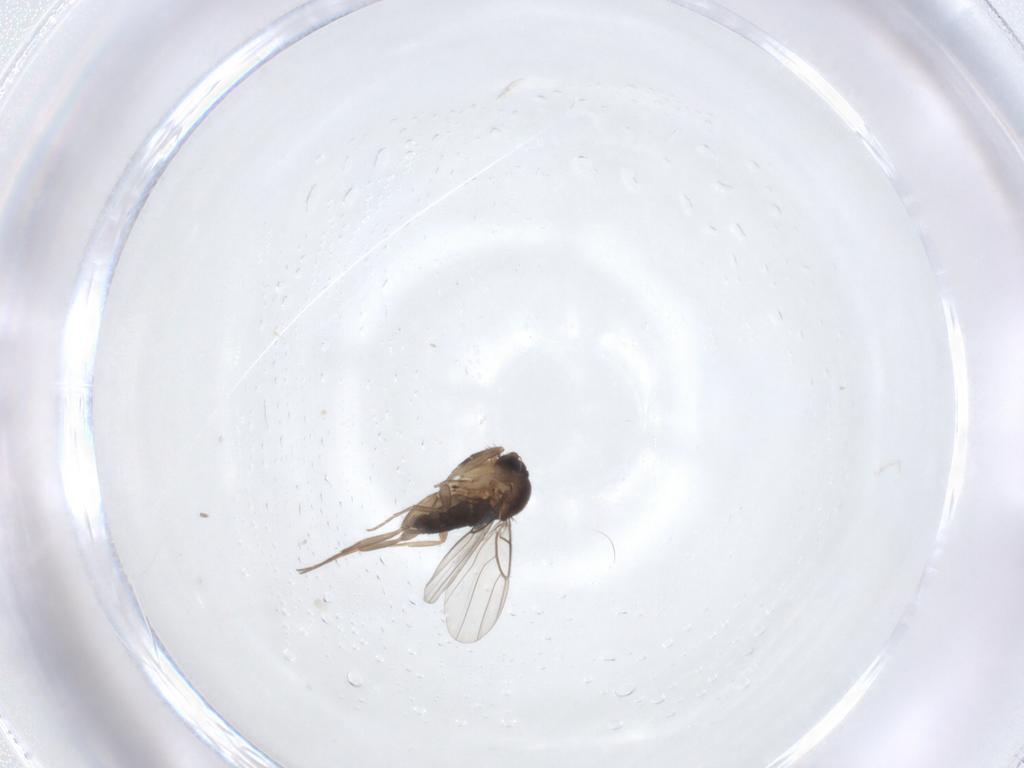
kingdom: Animalia
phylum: Arthropoda
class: Insecta
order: Diptera
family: Phoridae
